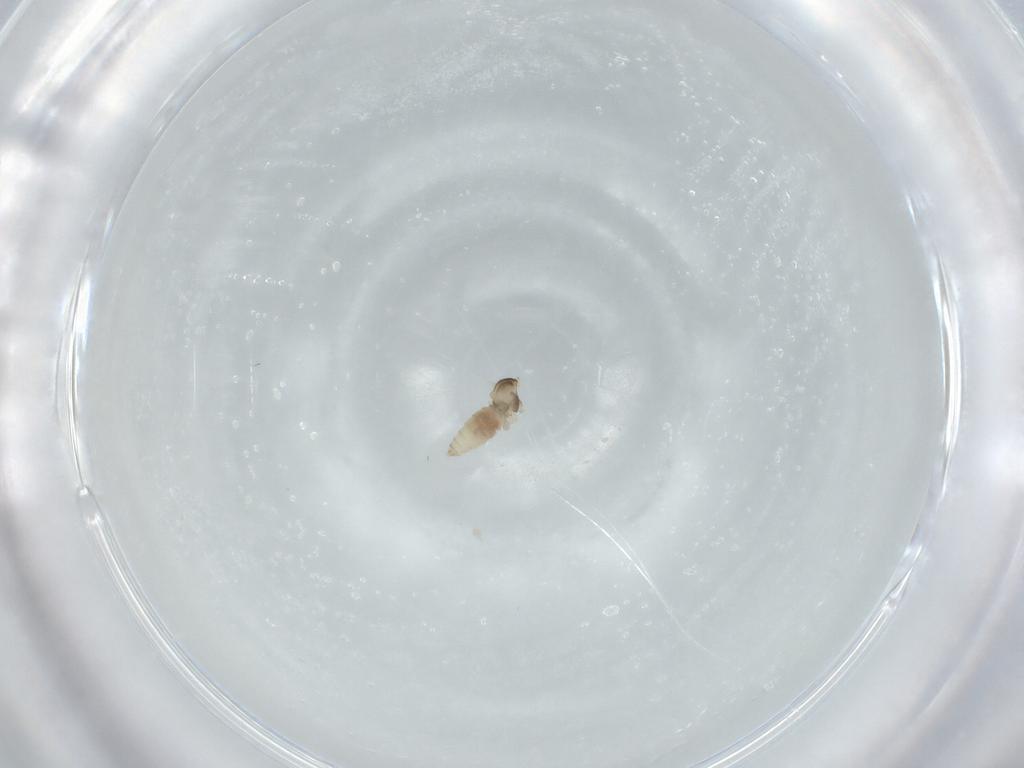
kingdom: Animalia
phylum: Arthropoda
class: Insecta
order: Diptera
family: Cecidomyiidae
